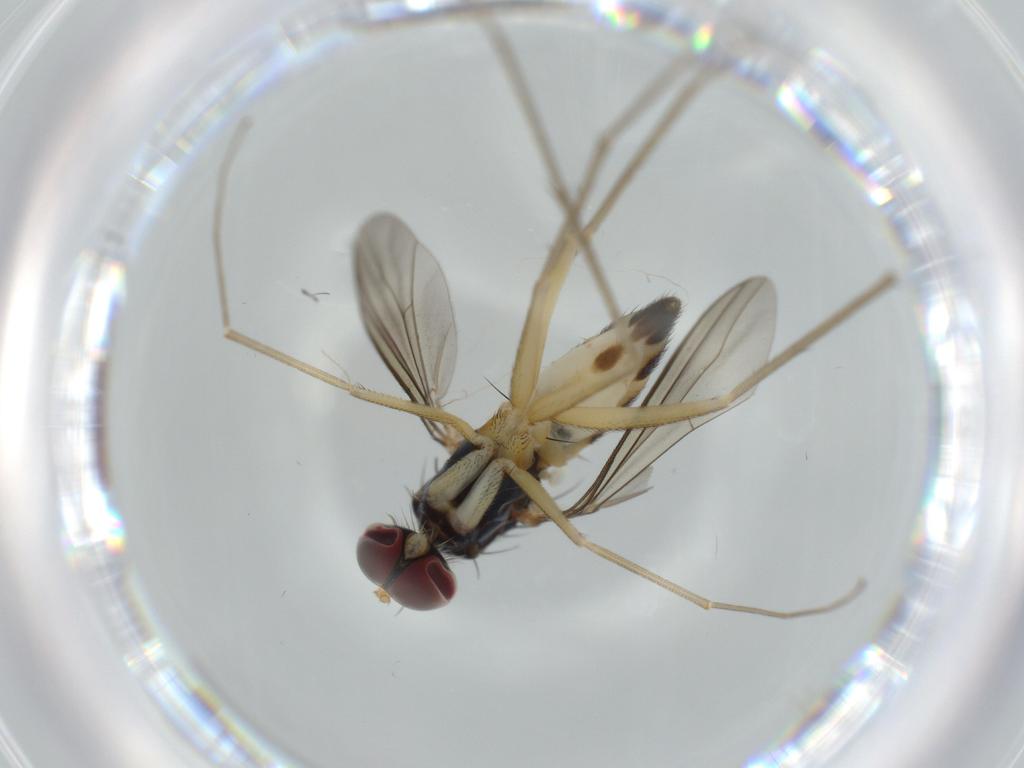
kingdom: Animalia
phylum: Arthropoda
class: Insecta
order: Diptera
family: Dolichopodidae
